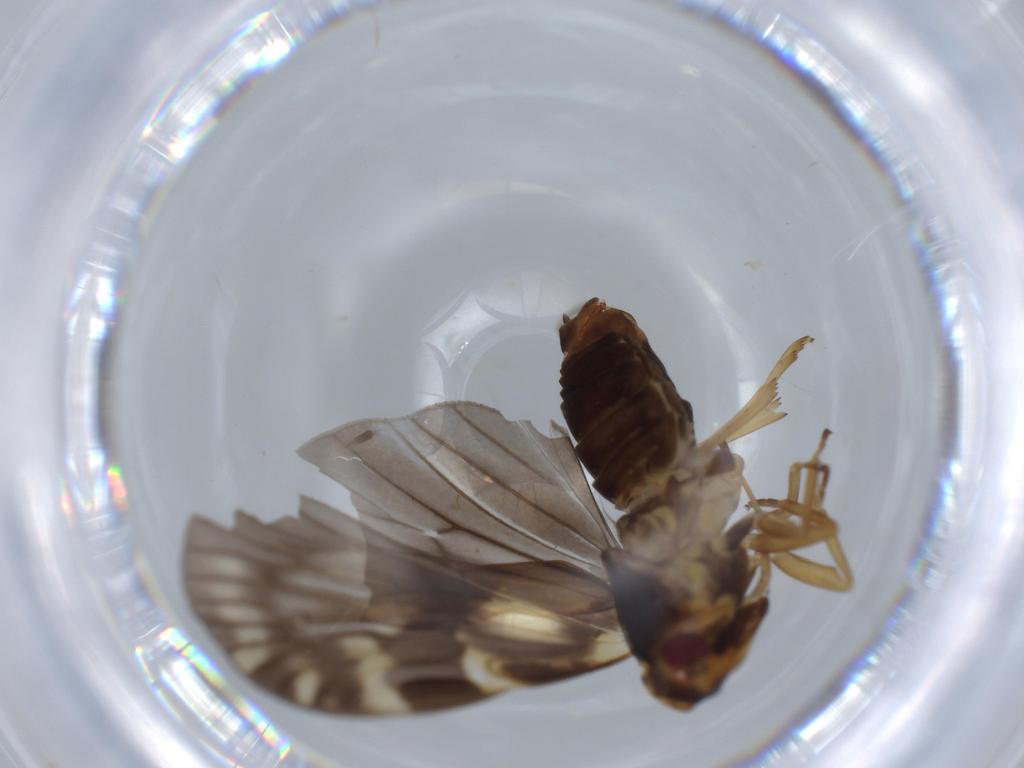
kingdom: Animalia
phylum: Arthropoda
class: Insecta
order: Hemiptera
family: Cixiidae
